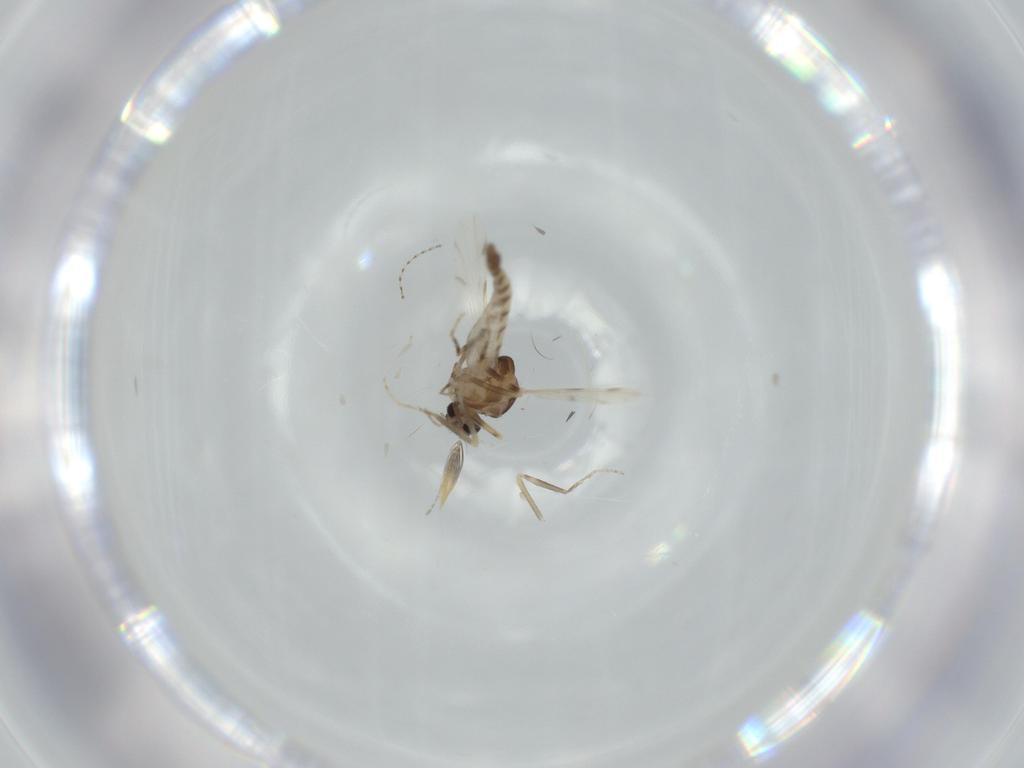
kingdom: Animalia
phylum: Arthropoda
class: Insecta
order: Diptera
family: Ceratopogonidae
